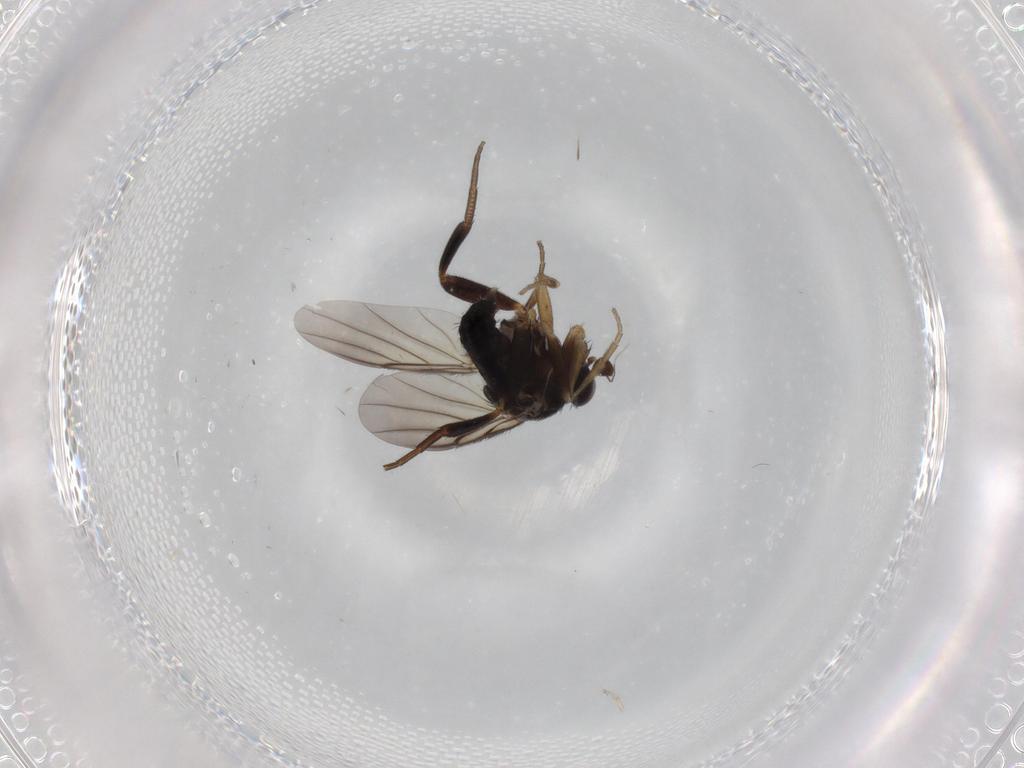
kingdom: Animalia
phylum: Arthropoda
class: Insecta
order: Diptera
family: Sciaridae
